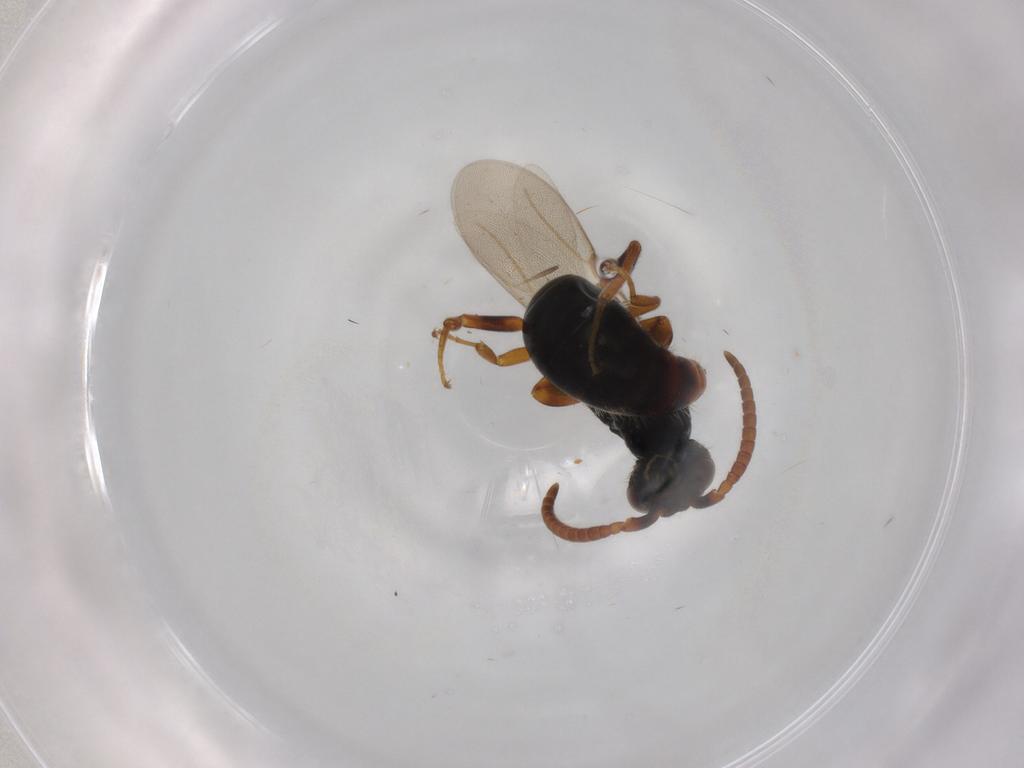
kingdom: Animalia
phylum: Arthropoda
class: Insecta
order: Hymenoptera
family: Bethylidae
